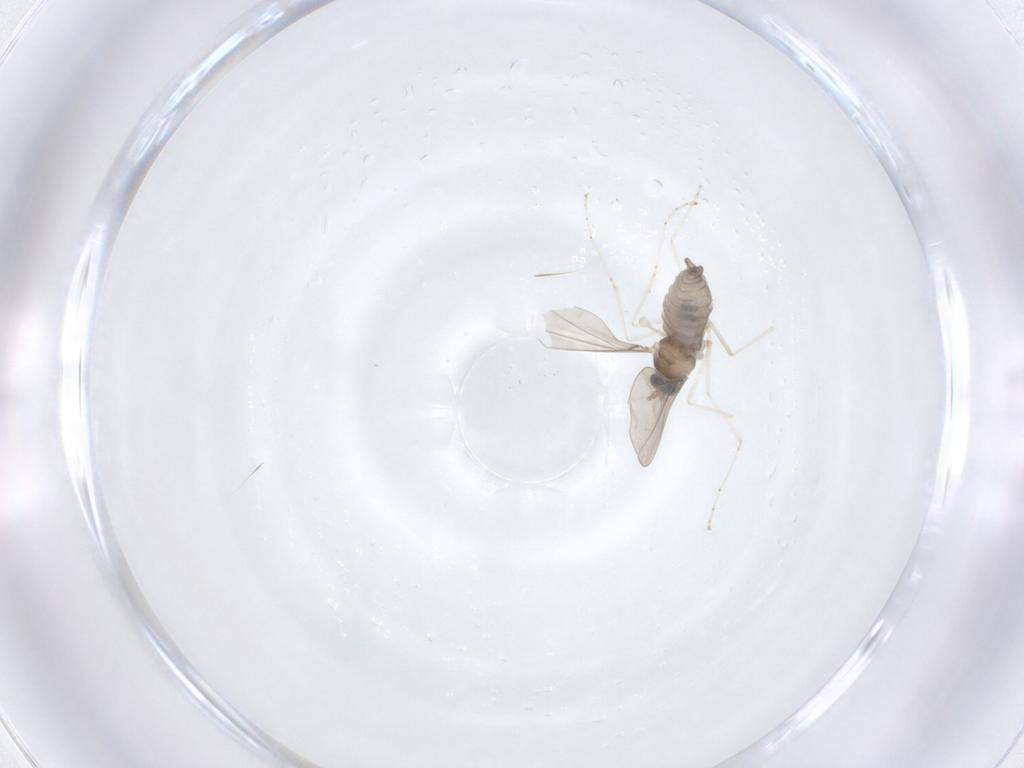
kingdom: Animalia
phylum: Arthropoda
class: Insecta
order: Diptera
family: Cecidomyiidae
